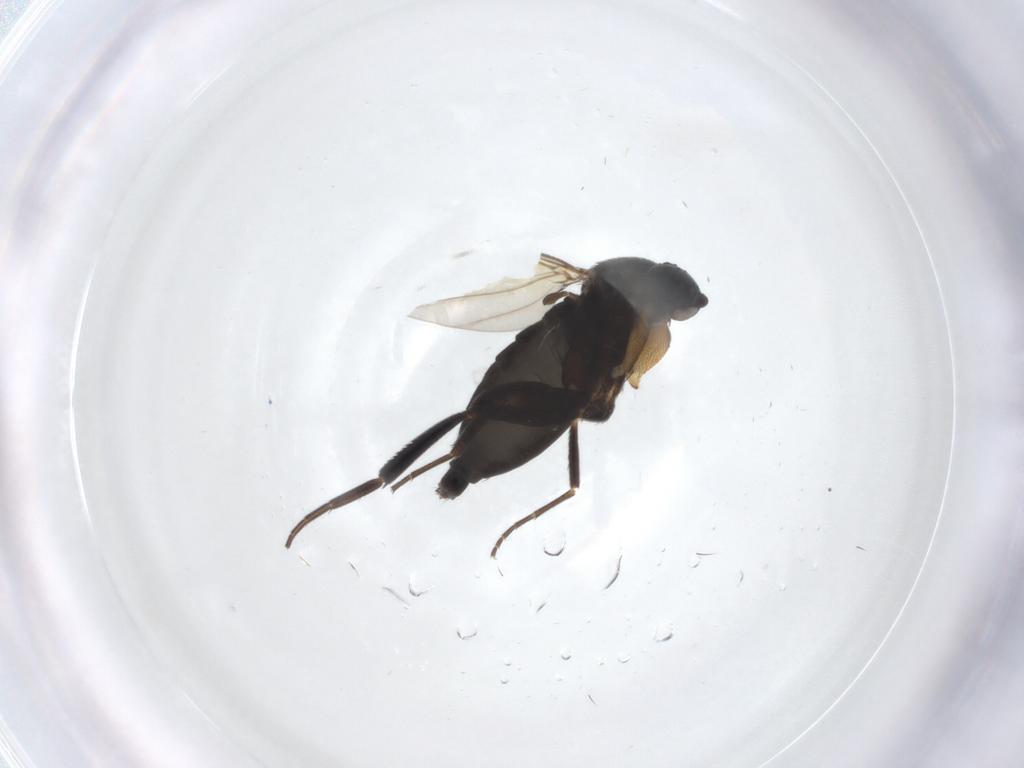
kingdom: Animalia
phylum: Arthropoda
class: Insecta
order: Diptera
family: Phoridae
